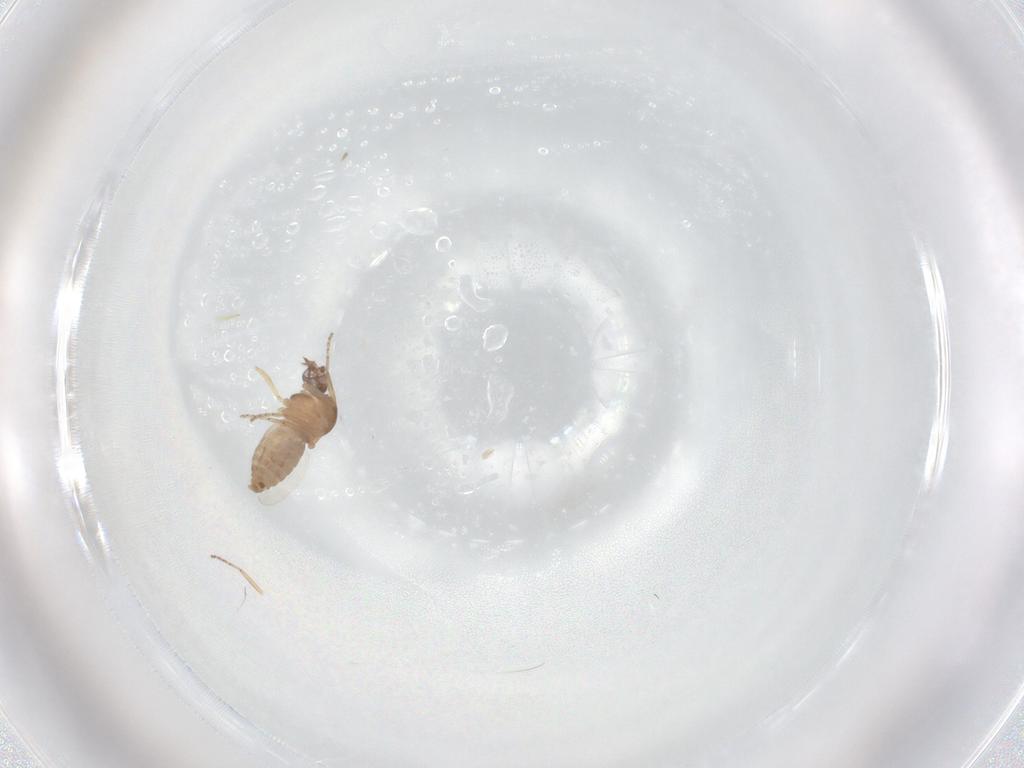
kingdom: Animalia
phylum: Arthropoda
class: Insecta
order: Diptera
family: Ceratopogonidae
